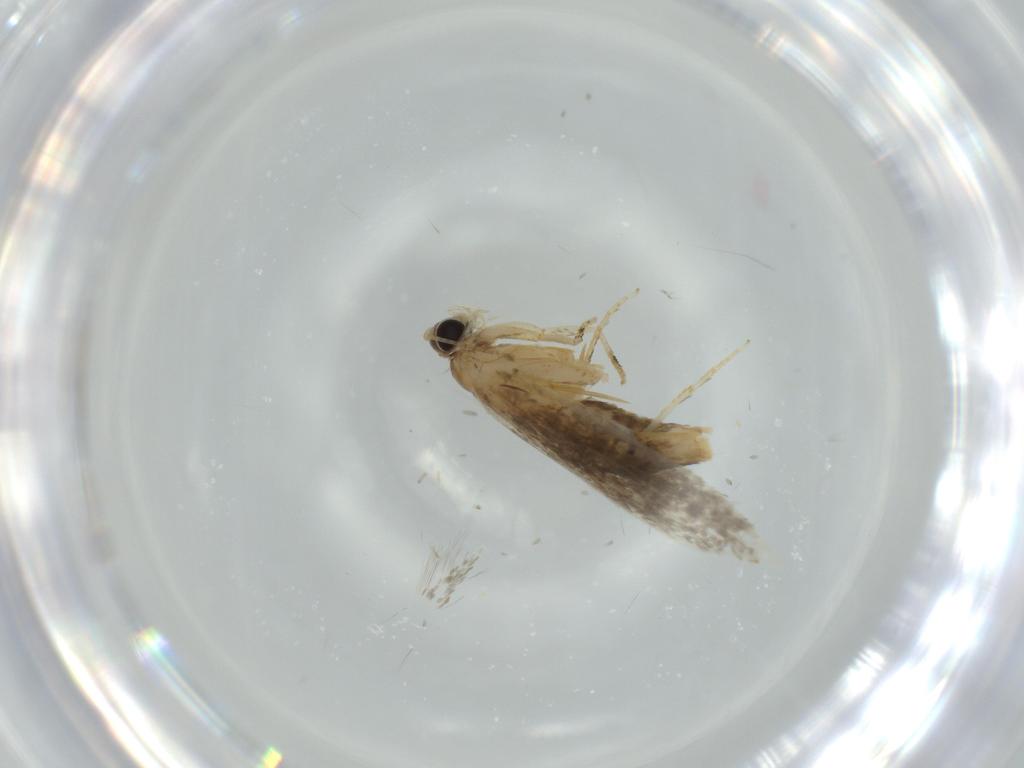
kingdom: Animalia
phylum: Arthropoda
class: Insecta
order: Lepidoptera
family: Tineidae
